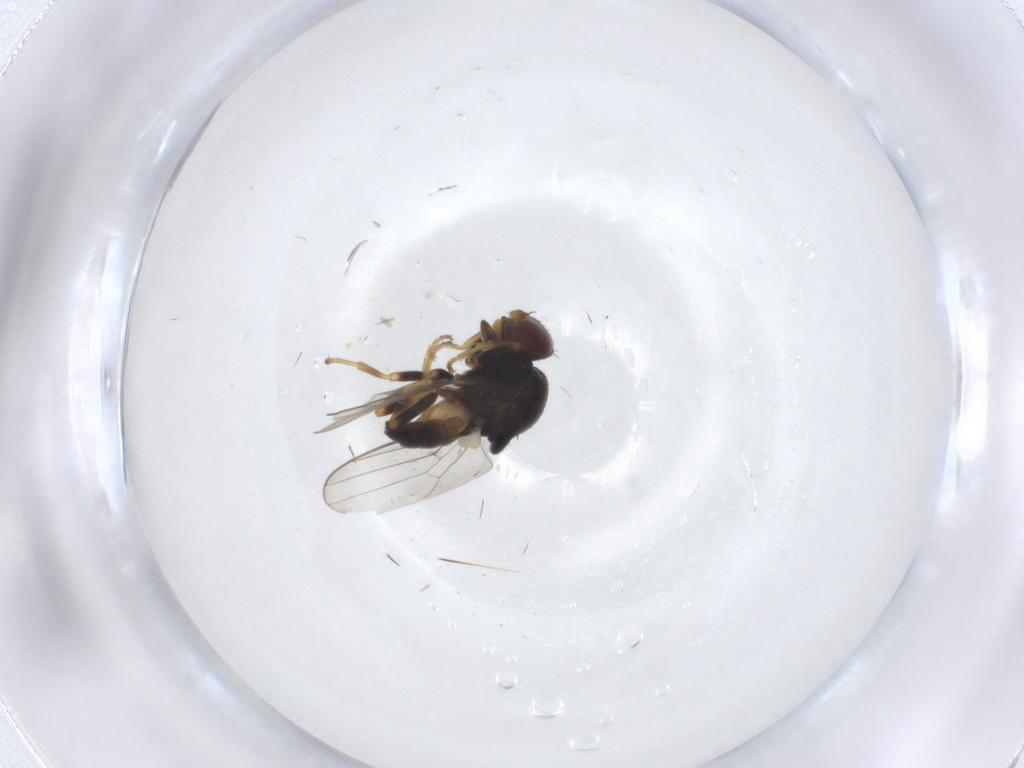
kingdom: Animalia
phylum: Arthropoda
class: Insecta
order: Diptera
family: Chloropidae
